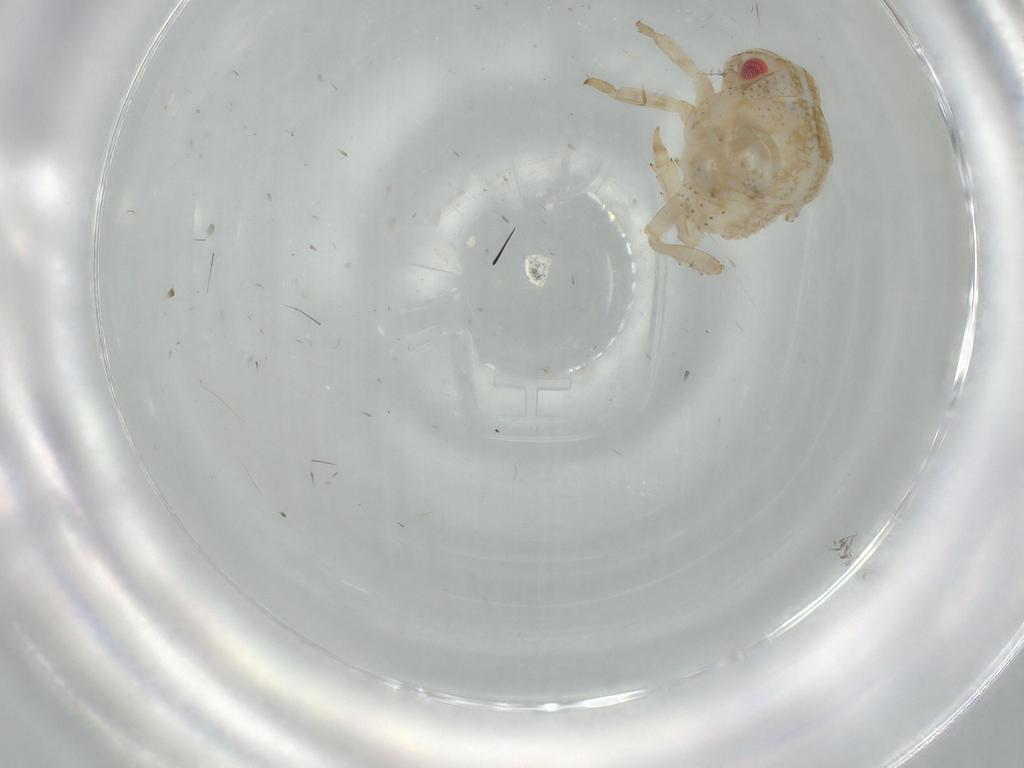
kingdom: Animalia
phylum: Arthropoda
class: Insecta
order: Hemiptera
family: Acanaloniidae
